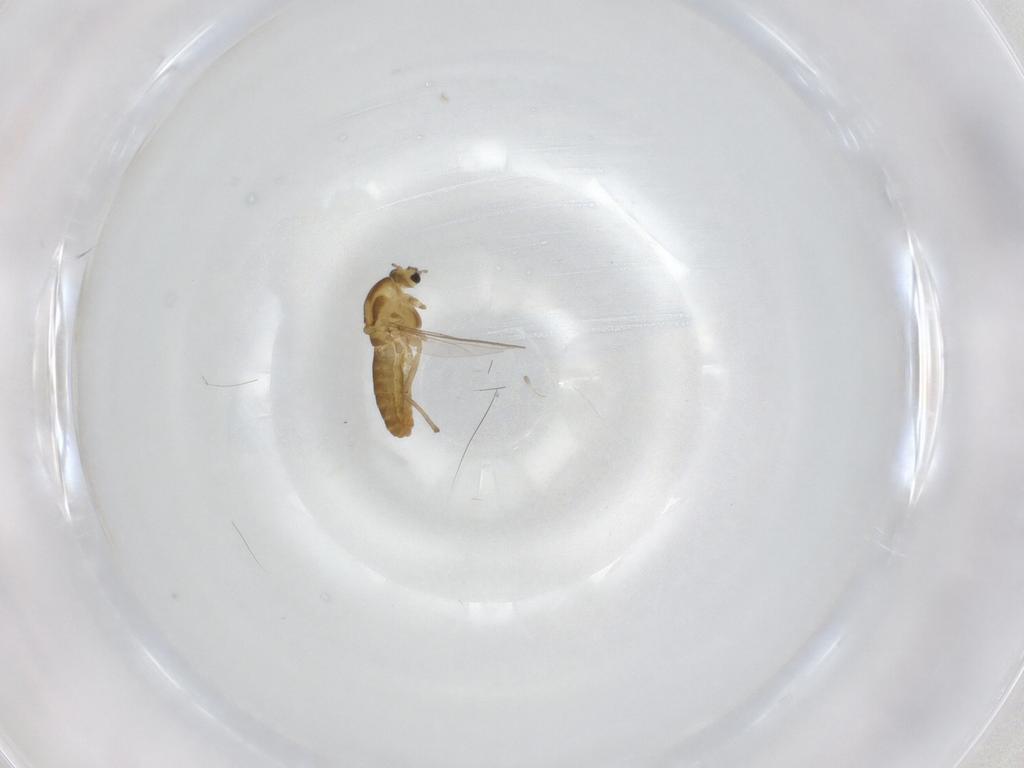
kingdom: Animalia
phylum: Arthropoda
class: Insecta
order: Diptera
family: Chironomidae
